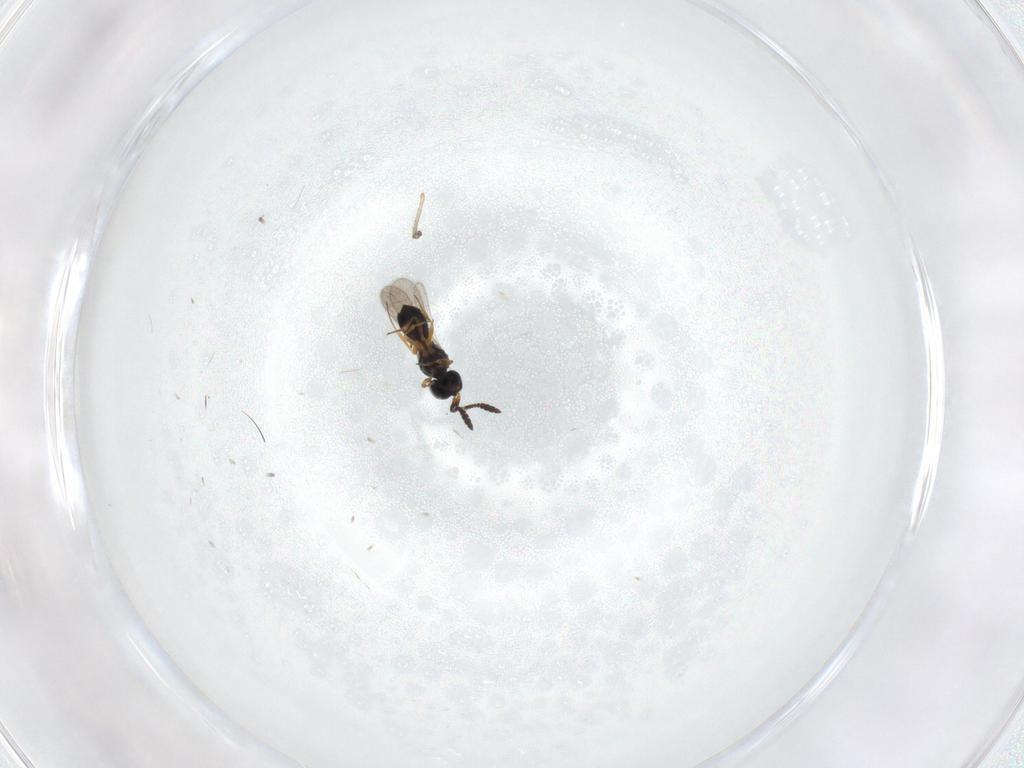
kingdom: Animalia
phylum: Arthropoda
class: Insecta
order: Hymenoptera
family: Scelionidae
